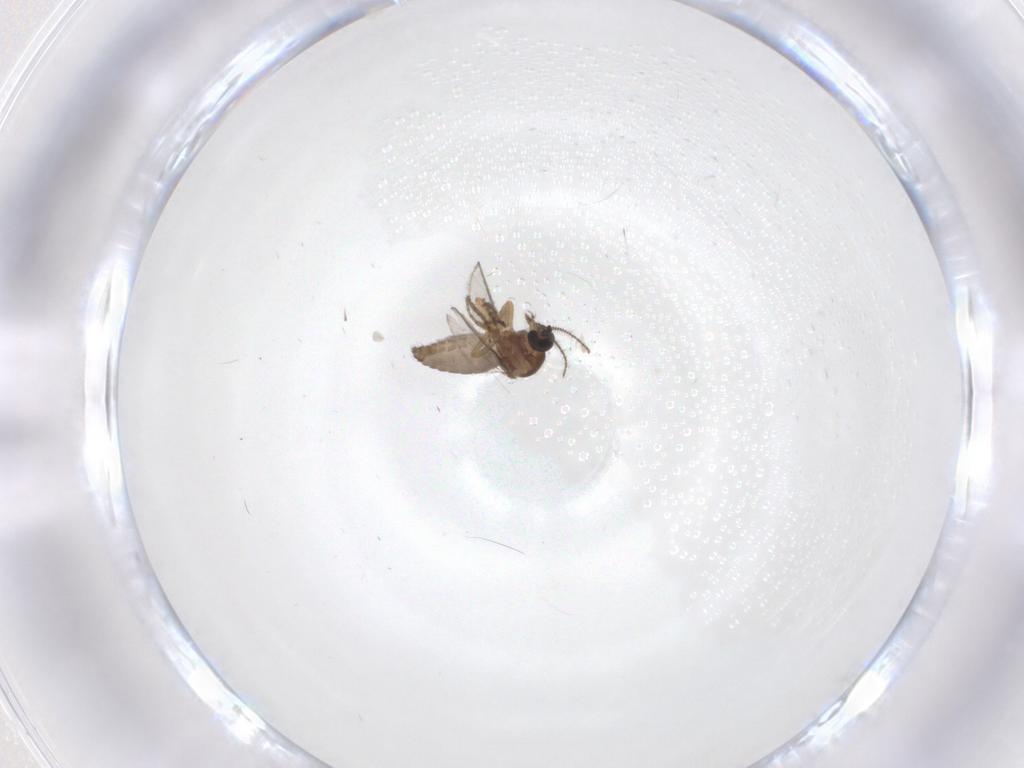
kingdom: Animalia
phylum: Arthropoda
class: Insecta
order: Diptera
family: Ceratopogonidae
